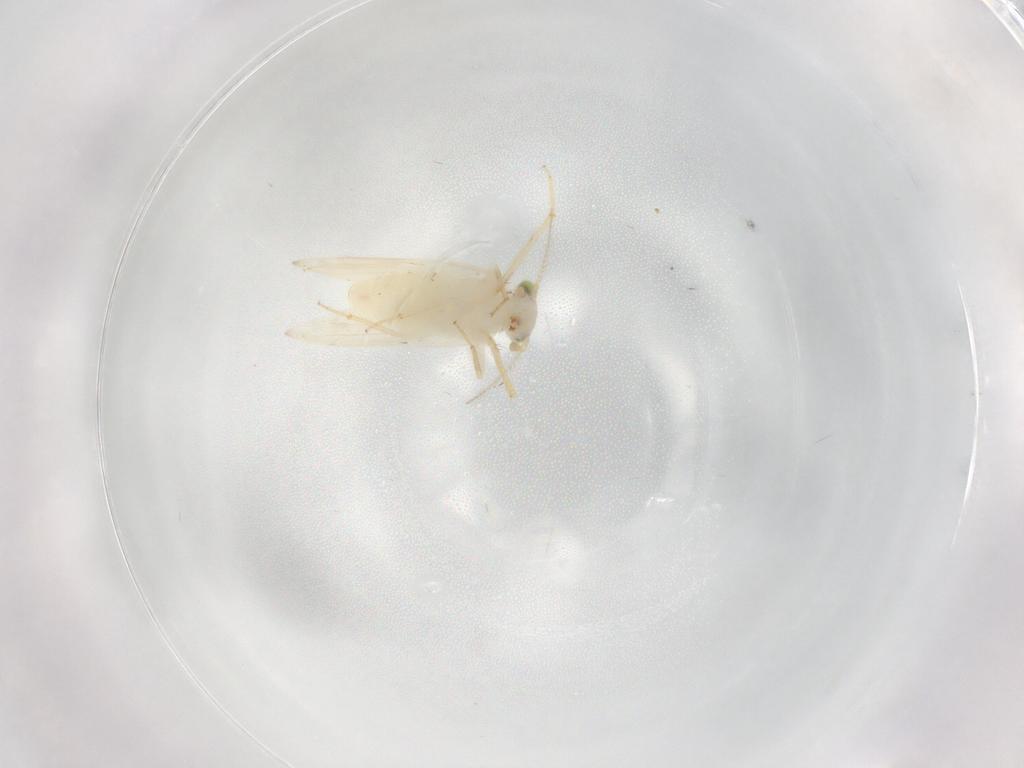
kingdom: Animalia
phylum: Arthropoda
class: Insecta
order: Psocodea
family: Lepidopsocidae
